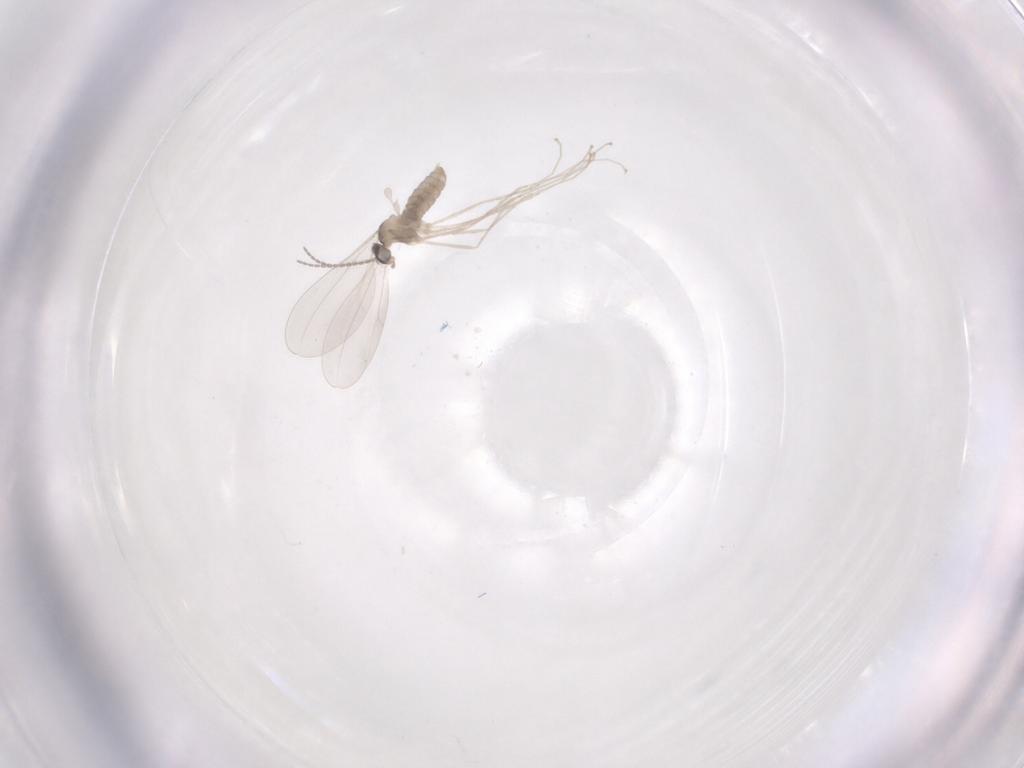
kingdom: Animalia
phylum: Arthropoda
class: Insecta
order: Diptera
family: Cecidomyiidae
